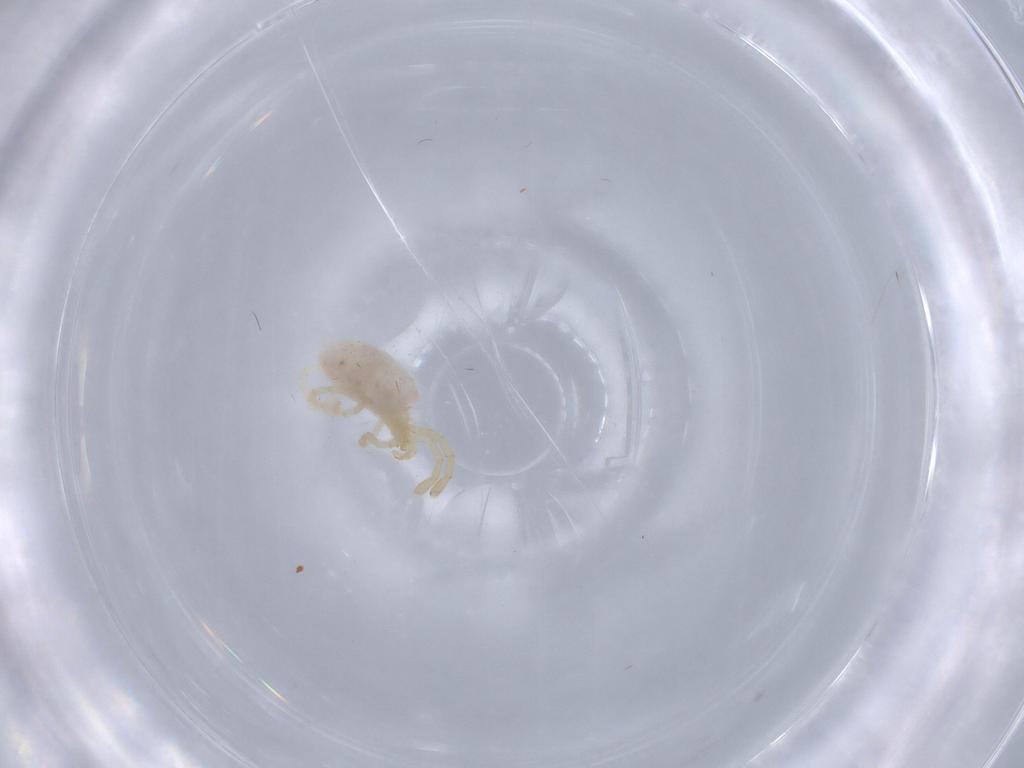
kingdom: Animalia
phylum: Arthropoda
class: Arachnida
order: Trombidiformes
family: Trombidiidae
